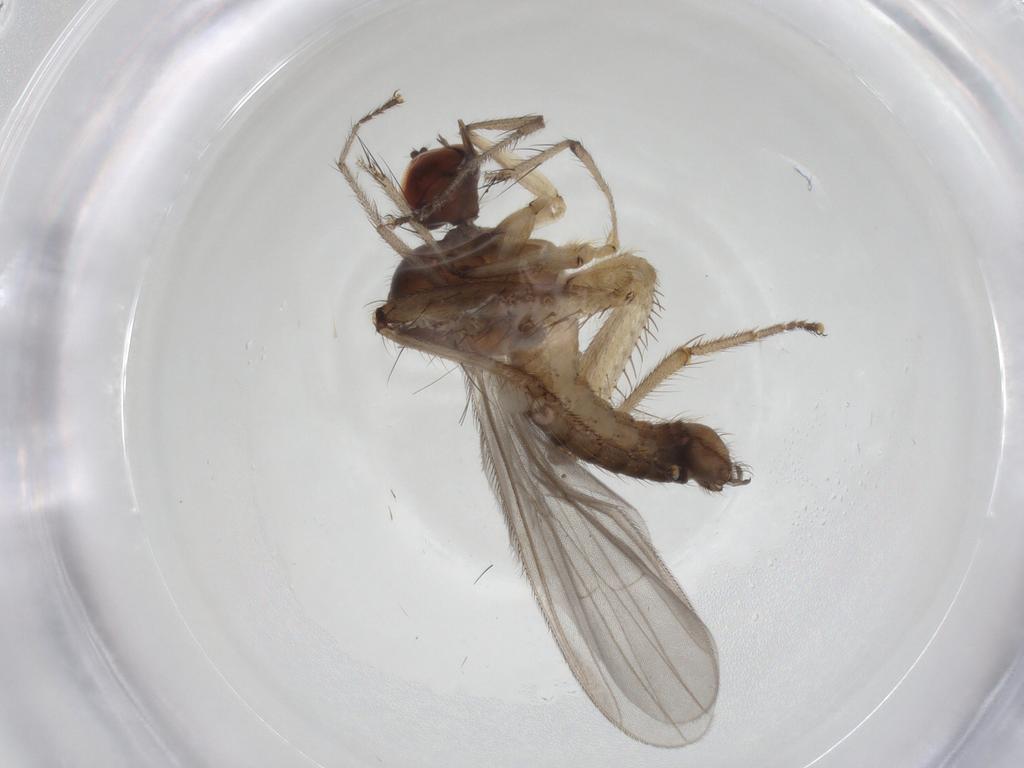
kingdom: Animalia
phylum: Arthropoda
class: Insecta
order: Diptera
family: Hybotidae
